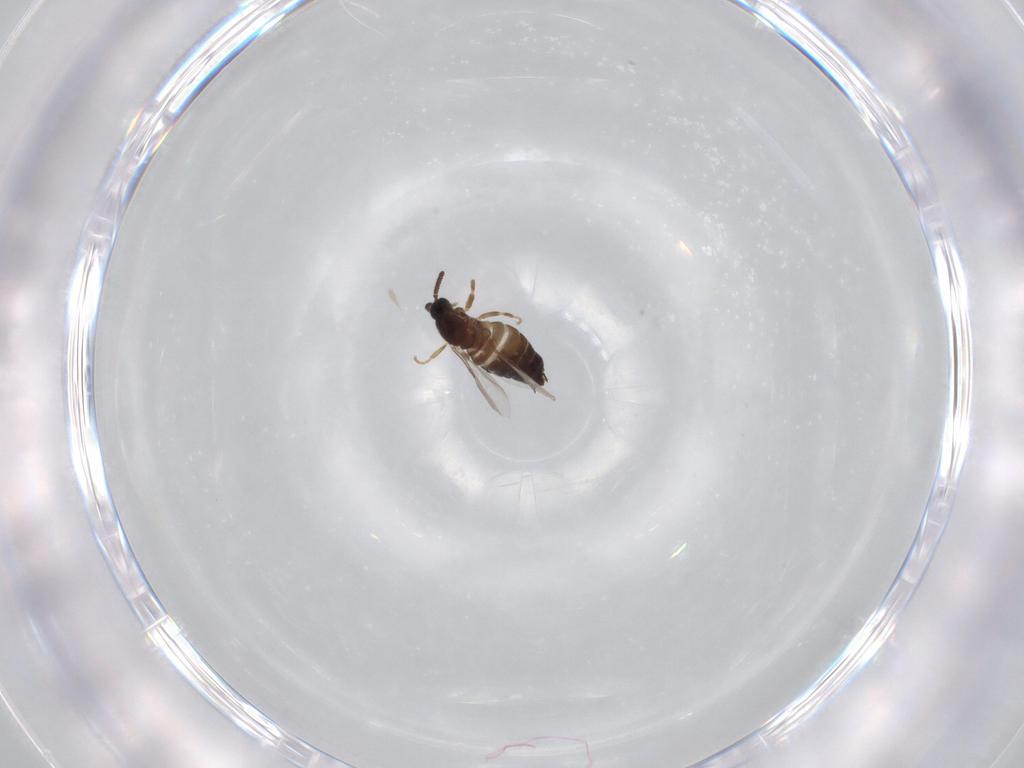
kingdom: Animalia
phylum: Arthropoda
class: Insecta
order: Diptera
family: Scatopsidae
